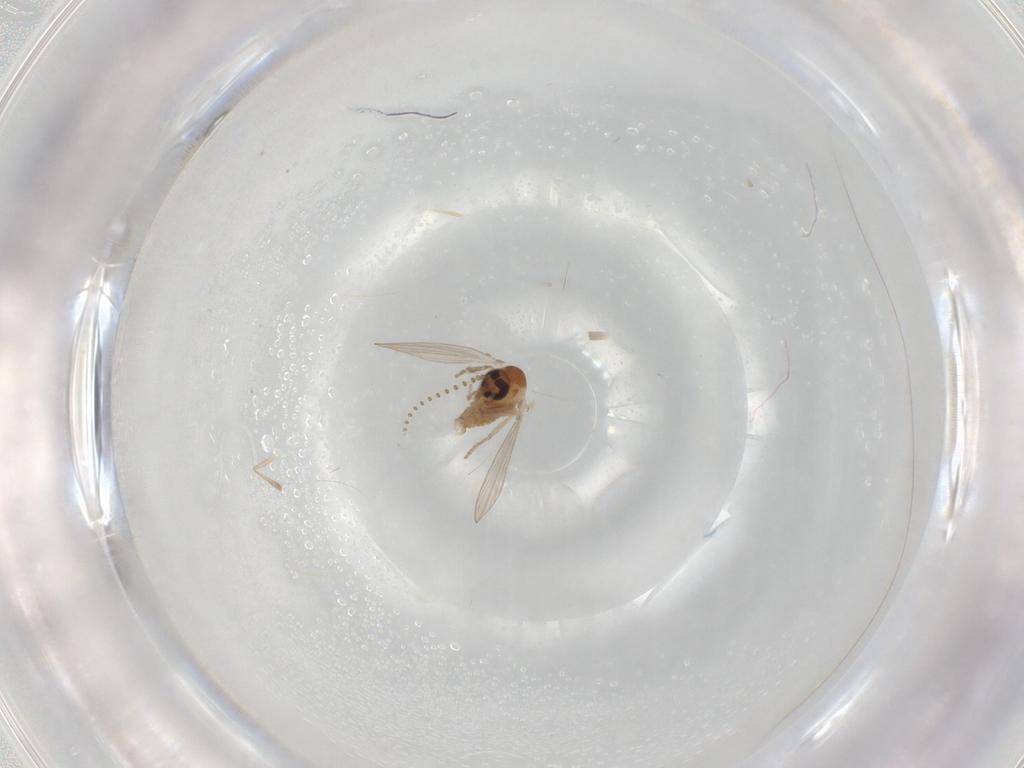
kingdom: Animalia
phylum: Arthropoda
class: Insecta
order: Diptera
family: Psychodidae
